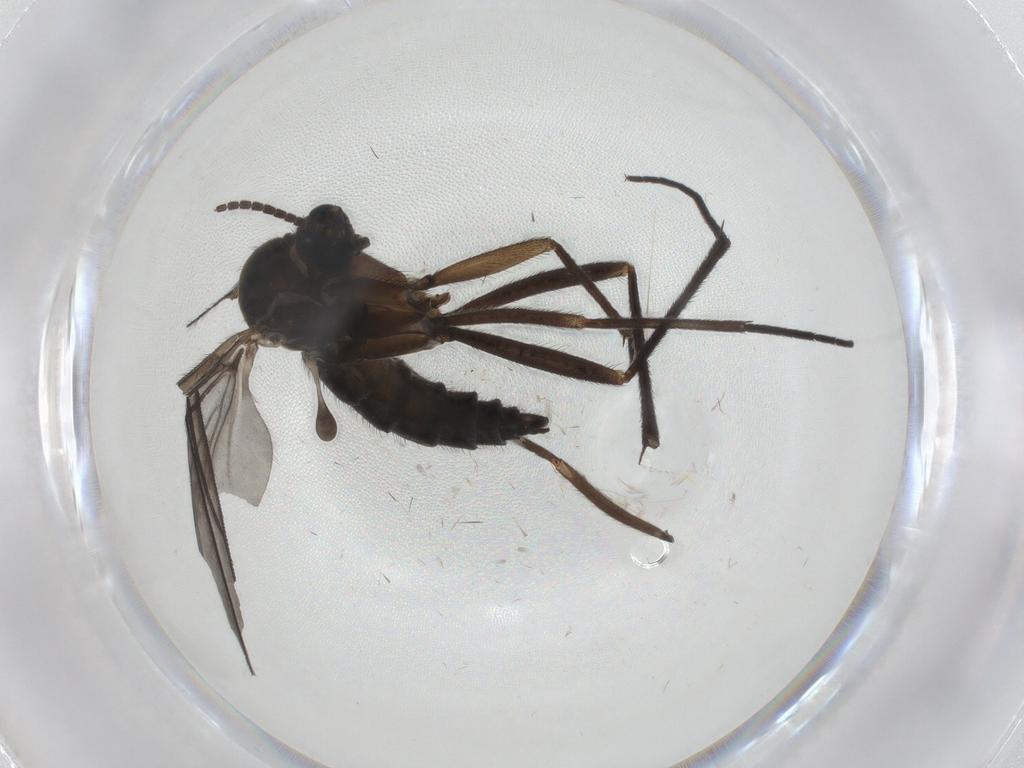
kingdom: Animalia
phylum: Arthropoda
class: Insecta
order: Diptera
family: Sciaridae
